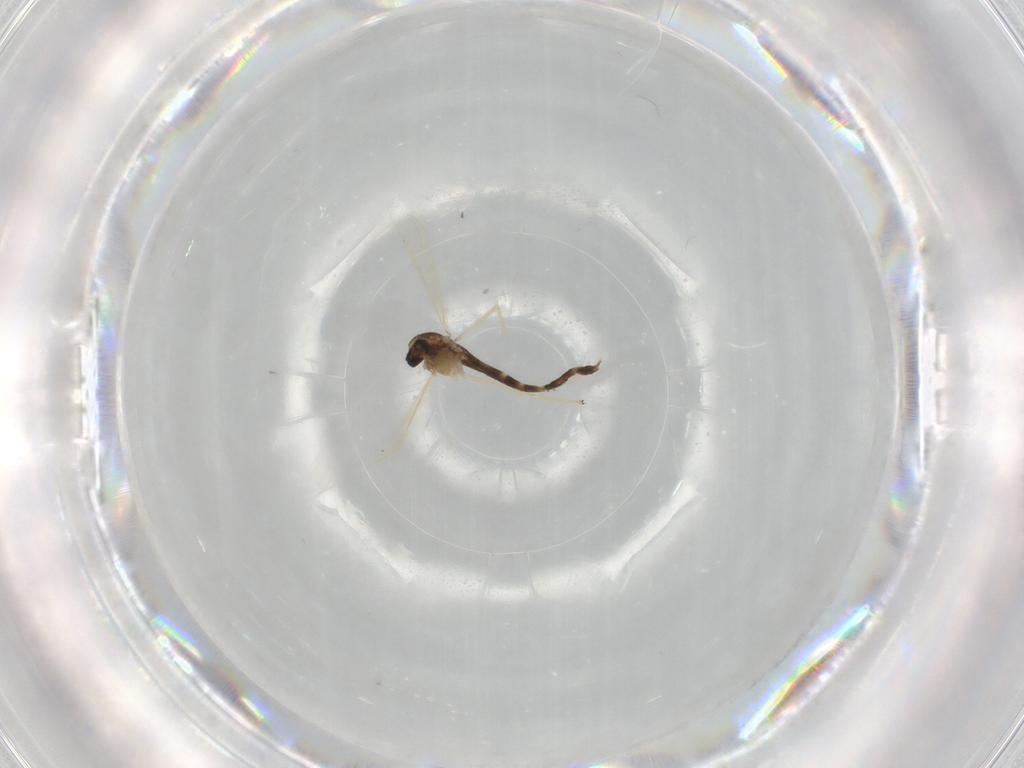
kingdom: Animalia
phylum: Arthropoda
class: Insecta
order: Diptera
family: Chironomidae
